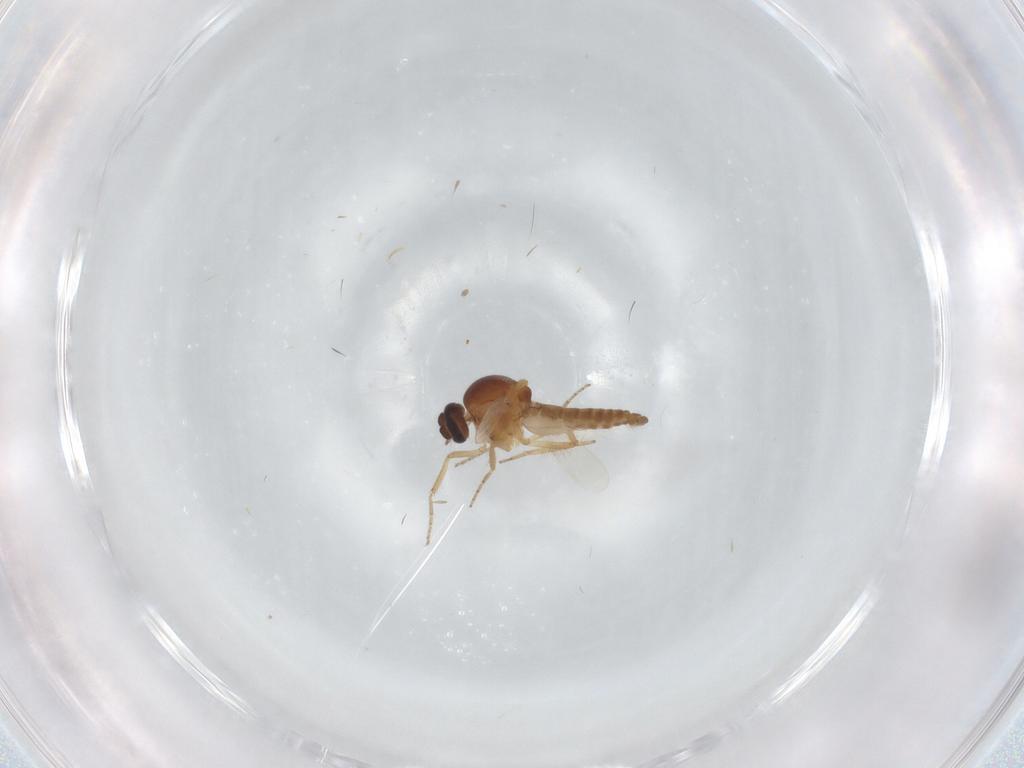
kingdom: Animalia
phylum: Arthropoda
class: Insecta
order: Diptera
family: Ceratopogonidae
